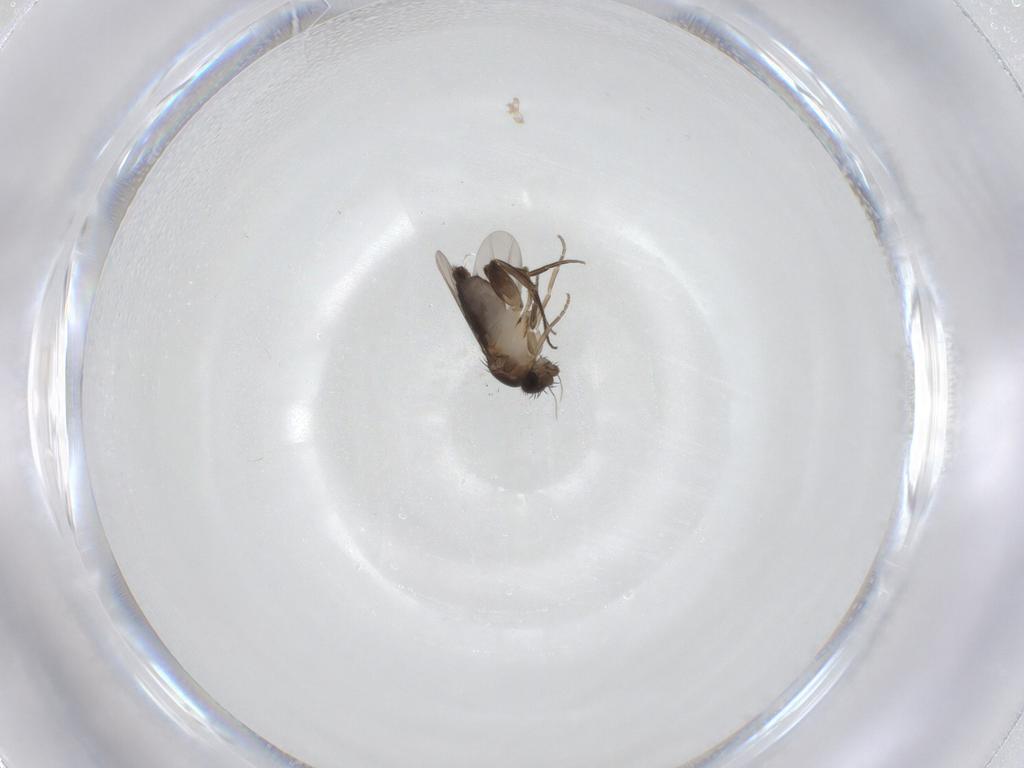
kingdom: Animalia
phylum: Arthropoda
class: Insecta
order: Diptera
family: Phoridae
